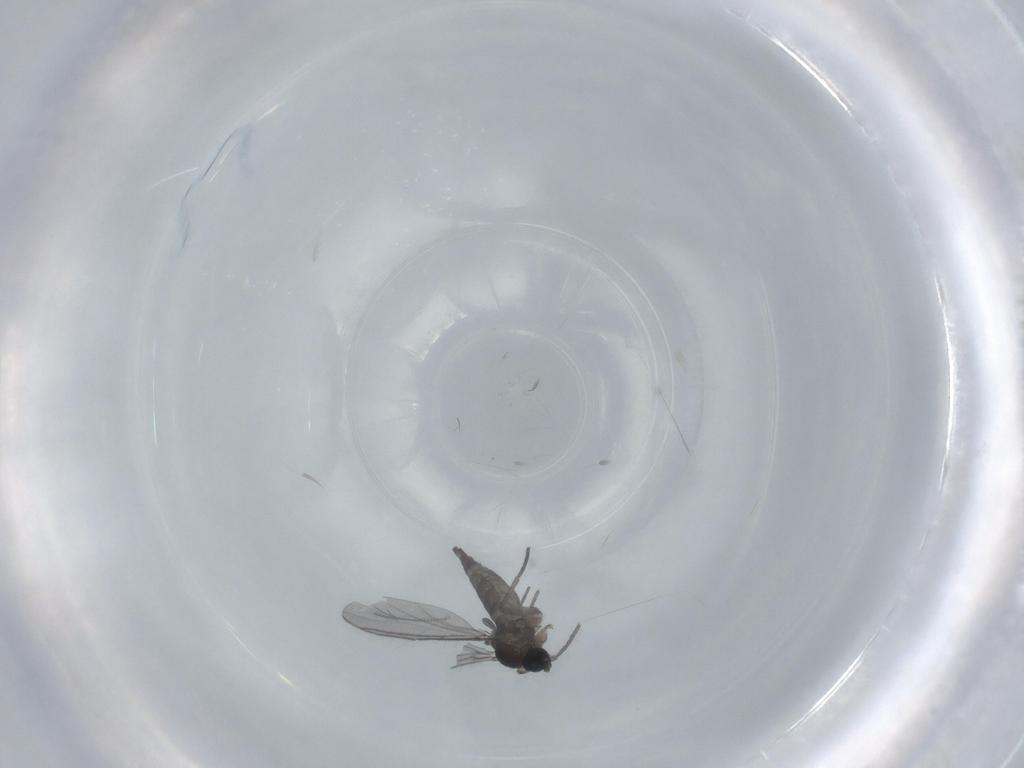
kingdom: Animalia
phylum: Arthropoda
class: Insecta
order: Diptera
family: Chironomidae
